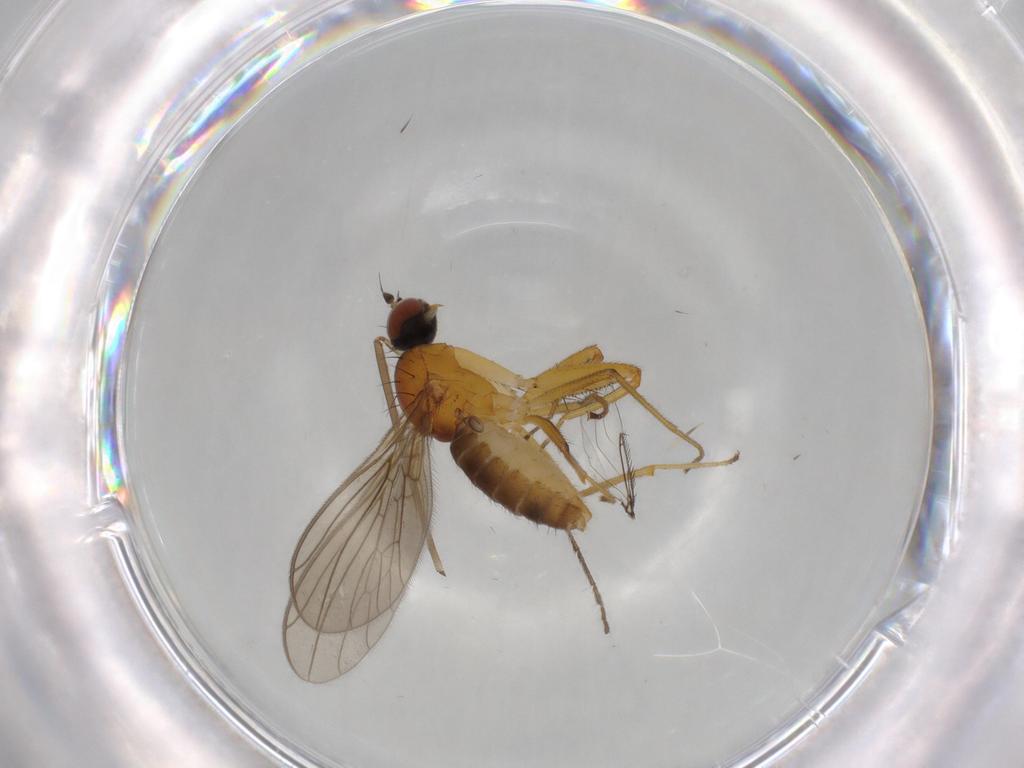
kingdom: Animalia
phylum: Arthropoda
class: Insecta
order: Diptera
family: Empididae
